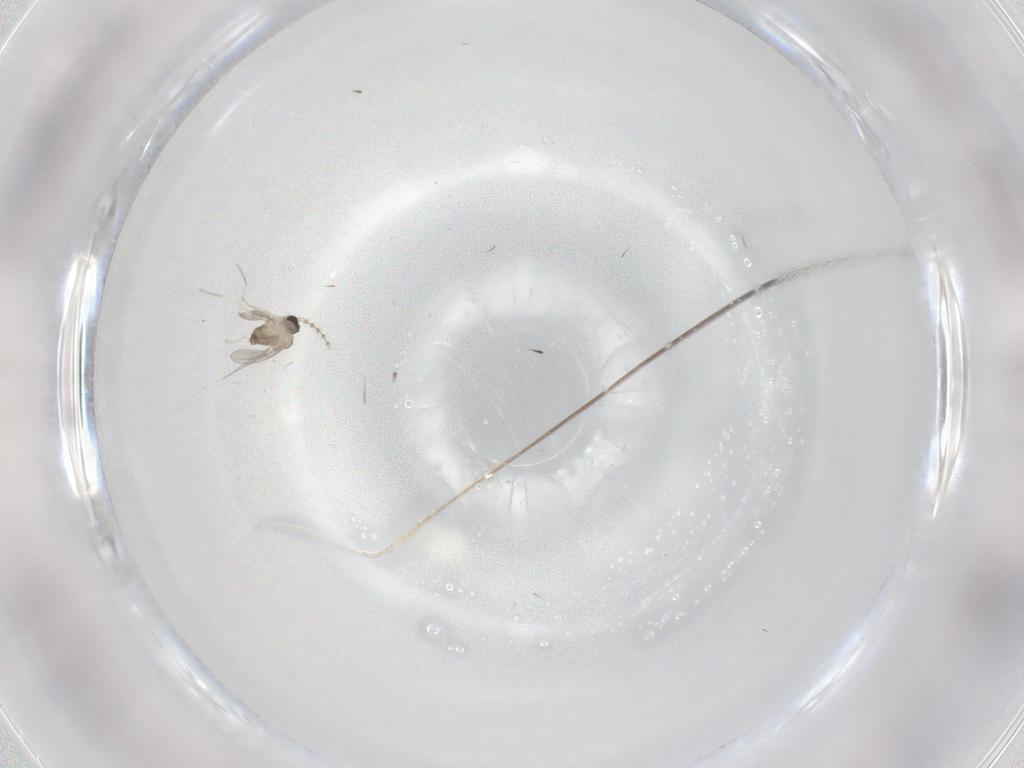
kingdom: Animalia
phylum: Arthropoda
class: Insecta
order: Diptera
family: Cecidomyiidae
